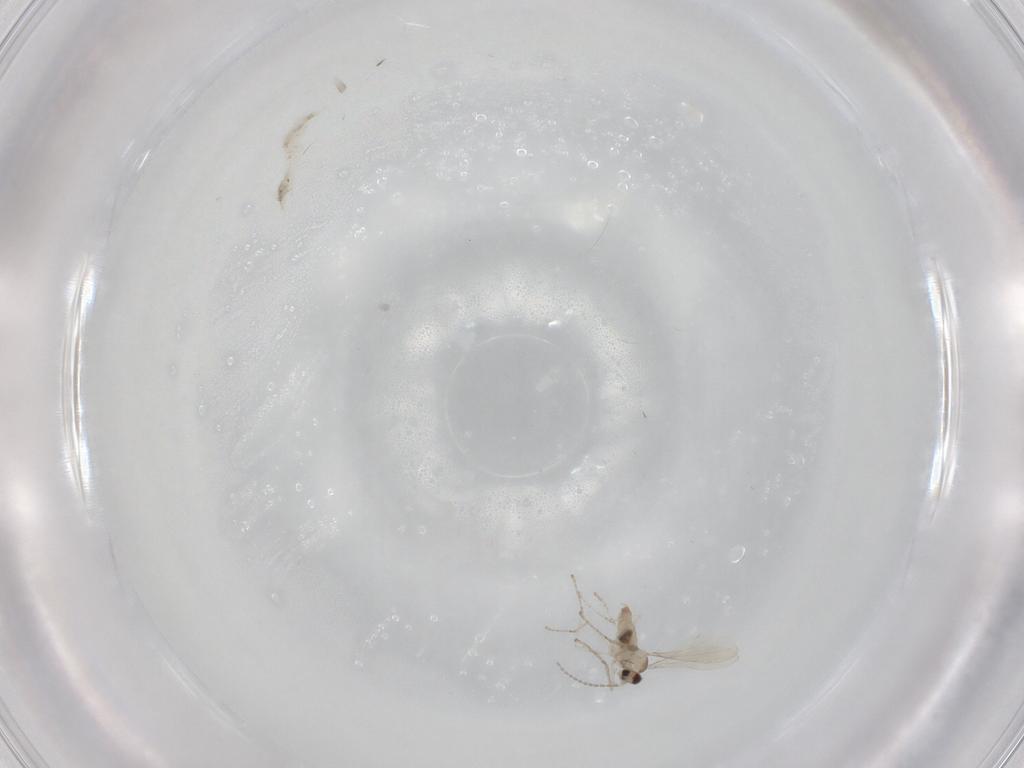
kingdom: Animalia
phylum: Arthropoda
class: Insecta
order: Diptera
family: Cecidomyiidae
